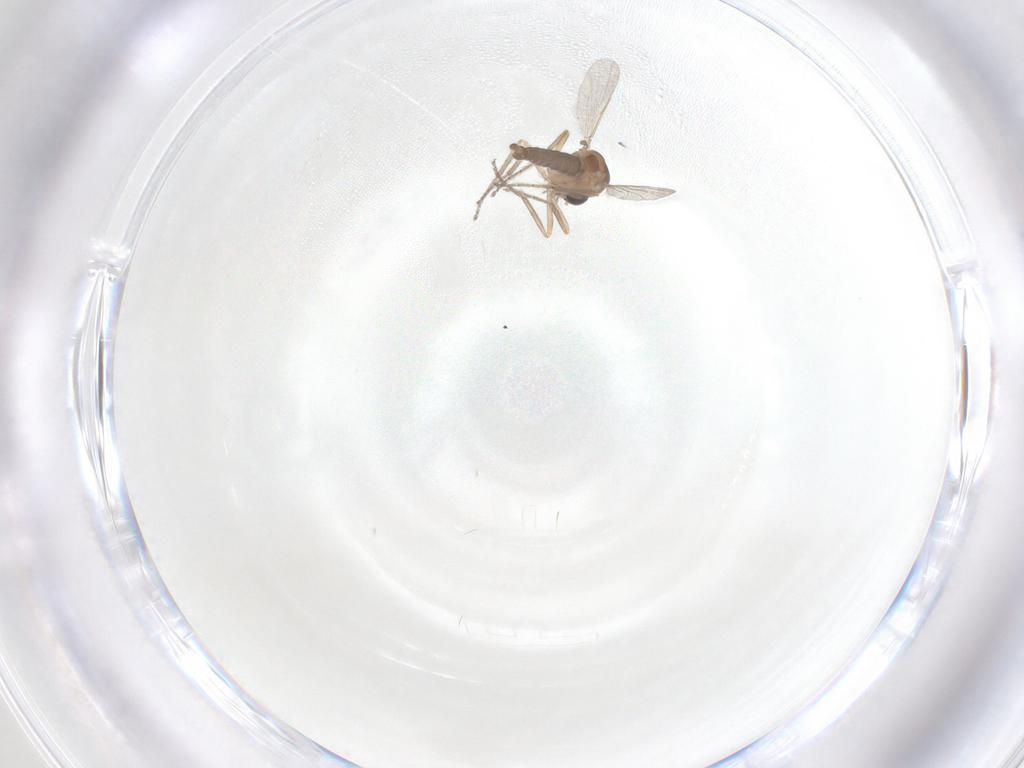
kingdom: Animalia
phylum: Arthropoda
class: Insecta
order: Diptera
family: Ceratopogonidae
